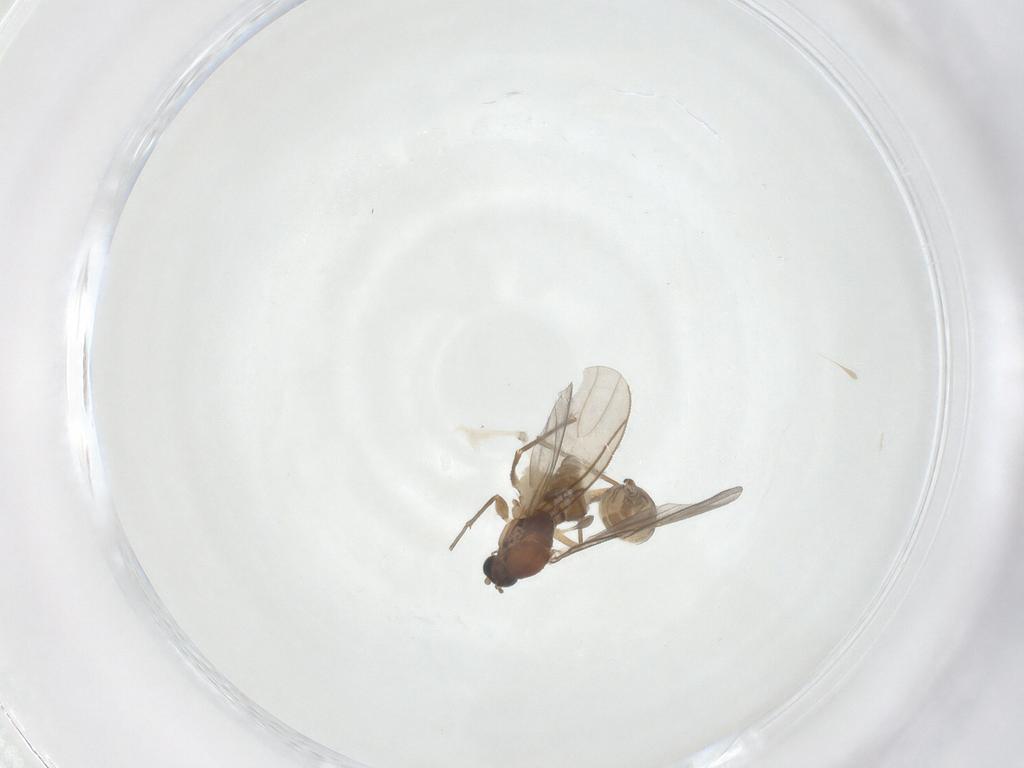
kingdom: Animalia
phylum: Arthropoda
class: Insecta
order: Diptera
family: Sciaridae
